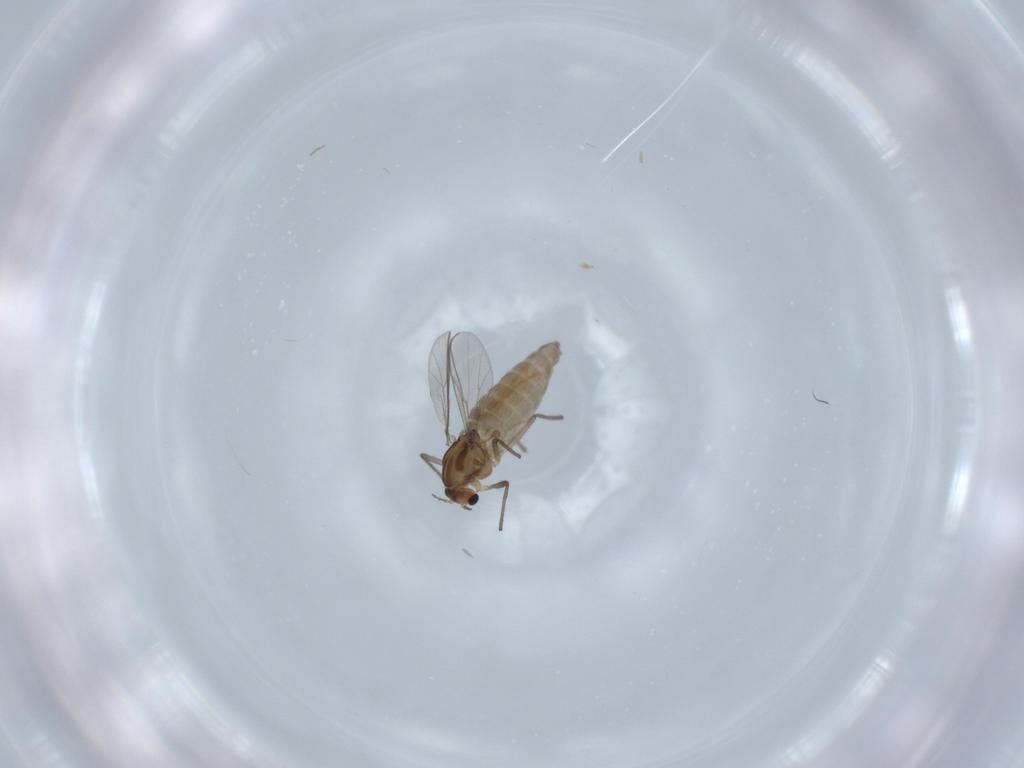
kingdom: Animalia
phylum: Arthropoda
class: Insecta
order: Diptera
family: Chironomidae
